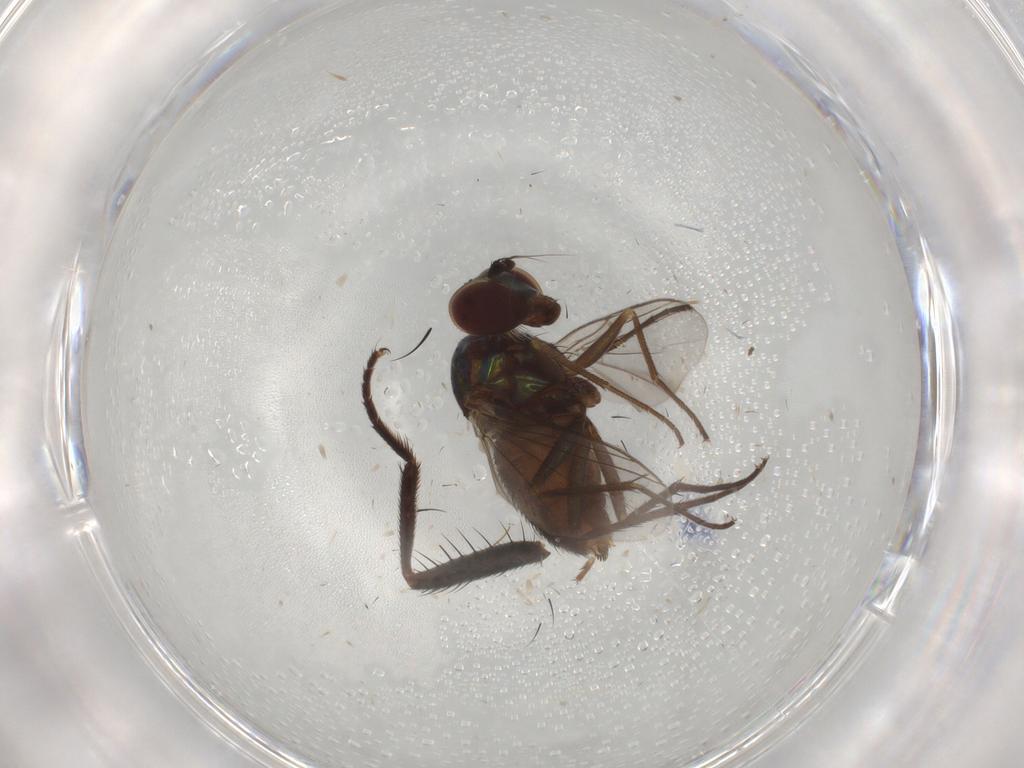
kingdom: Animalia
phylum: Arthropoda
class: Insecta
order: Diptera
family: Dolichopodidae
